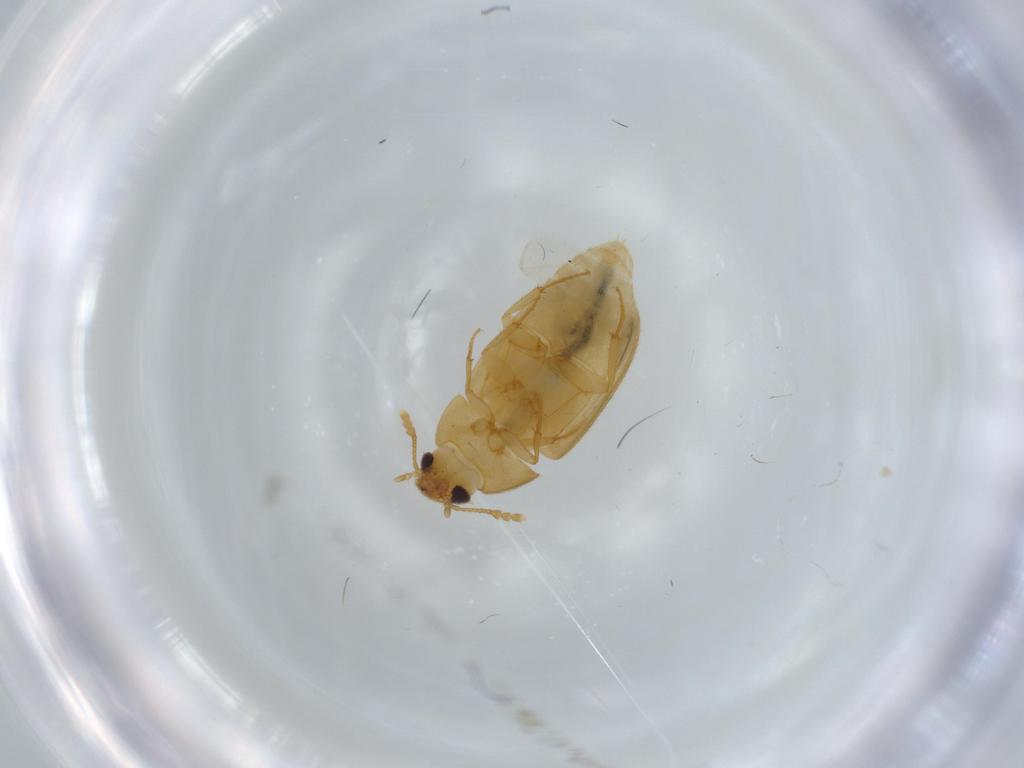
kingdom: Animalia
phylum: Arthropoda
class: Insecta
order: Coleoptera
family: Mycetophagidae
